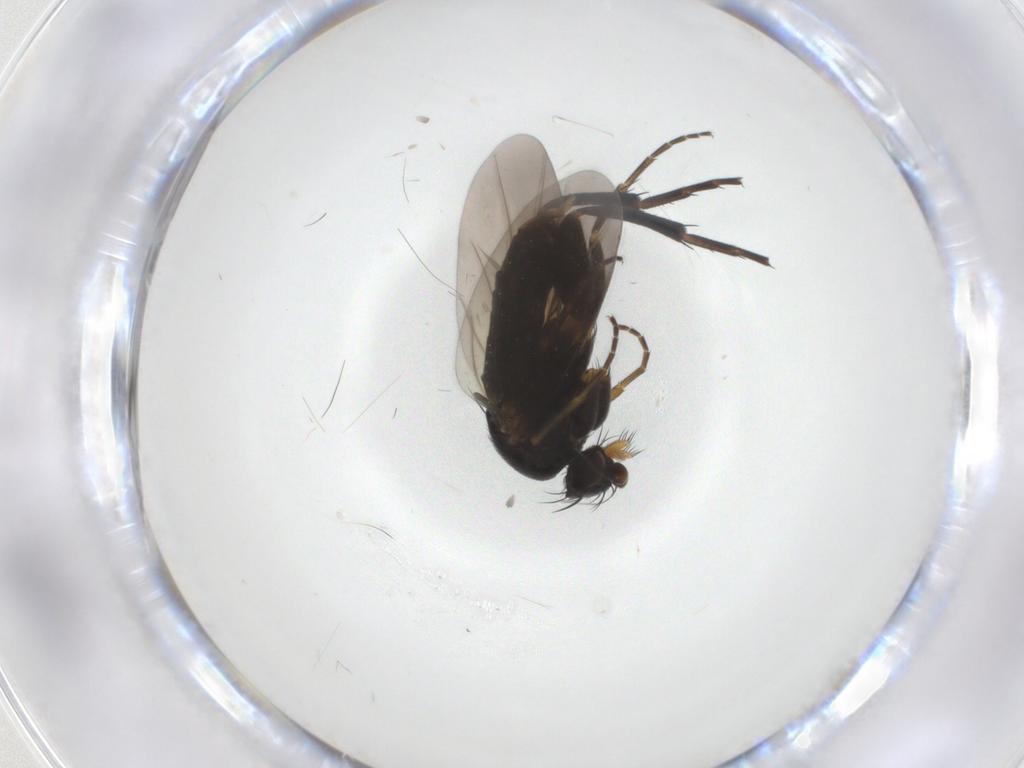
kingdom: Animalia
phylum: Arthropoda
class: Insecta
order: Diptera
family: Phoridae
